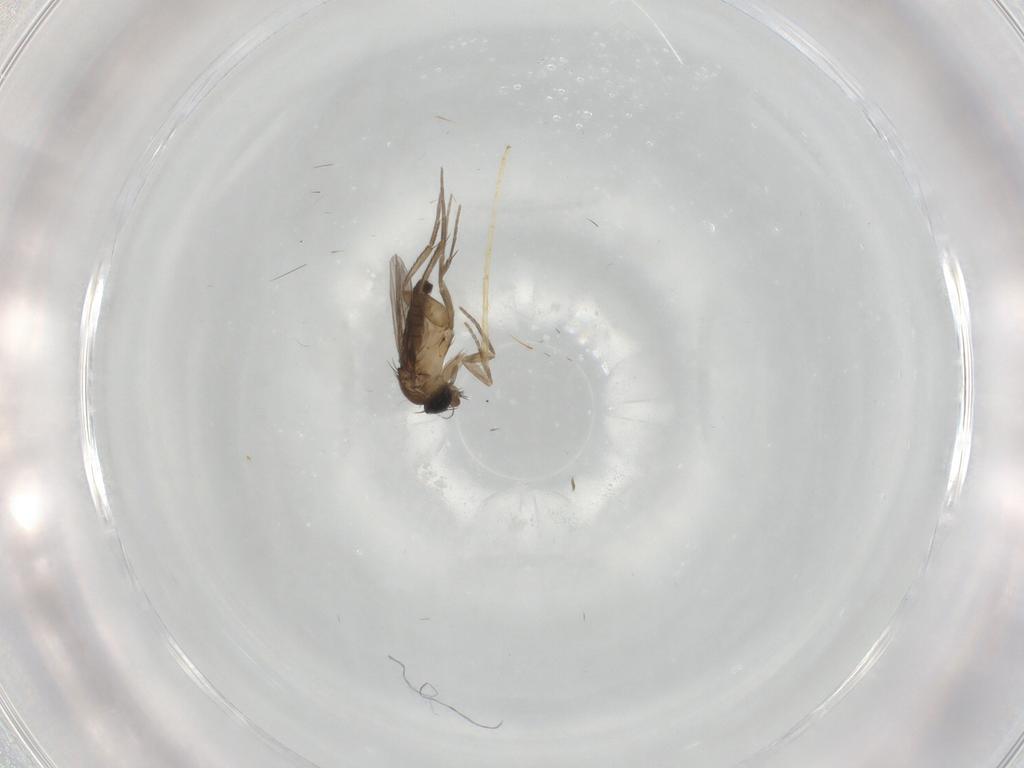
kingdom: Animalia
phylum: Arthropoda
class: Insecta
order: Diptera
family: Phoridae
